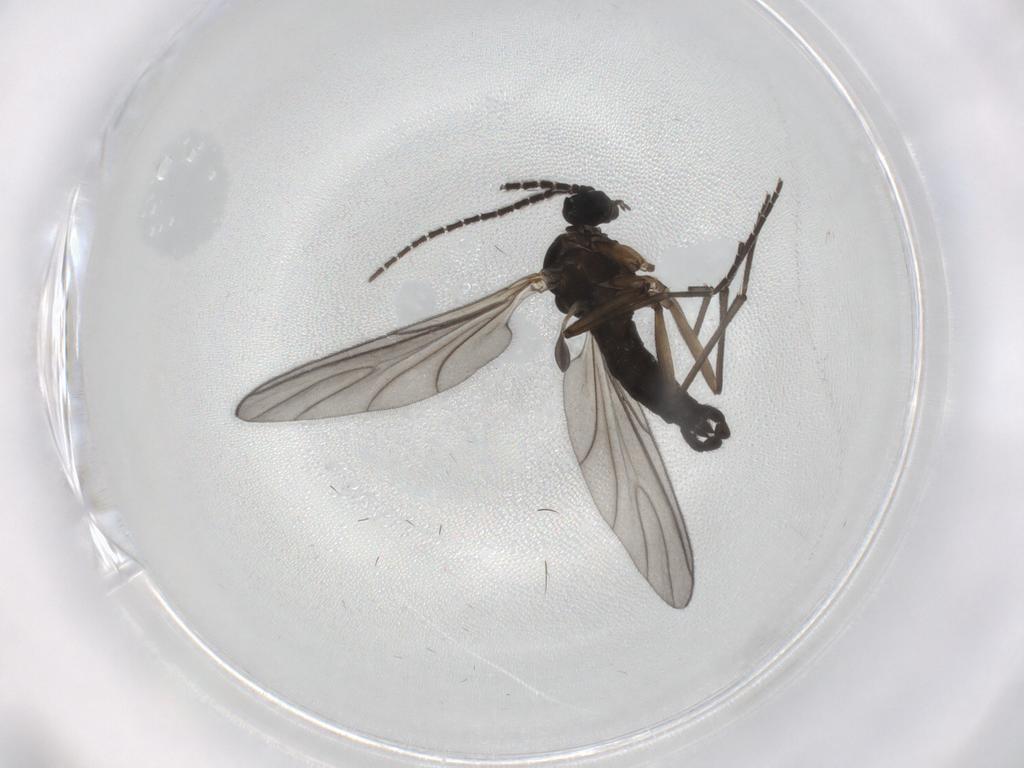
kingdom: Animalia
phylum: Arthropoda
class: Insecta
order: Diptera
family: Sciaridae
